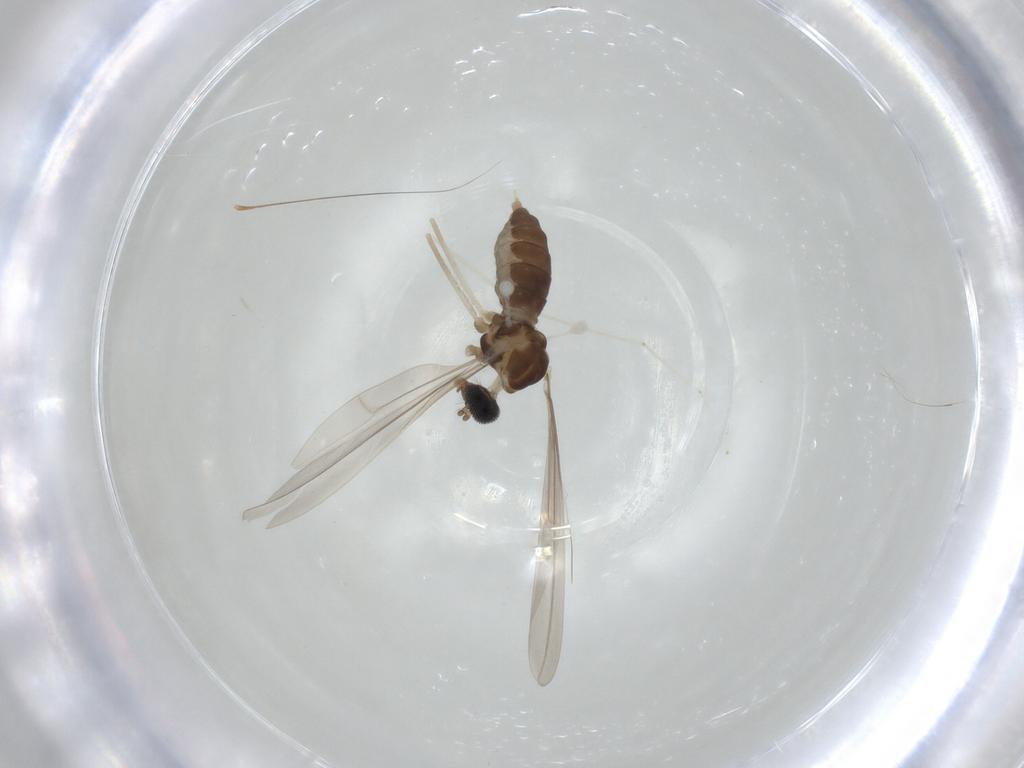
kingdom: Animalia
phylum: Arthropoda
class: Insecta
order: Diptera
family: Cecidomyiidae
